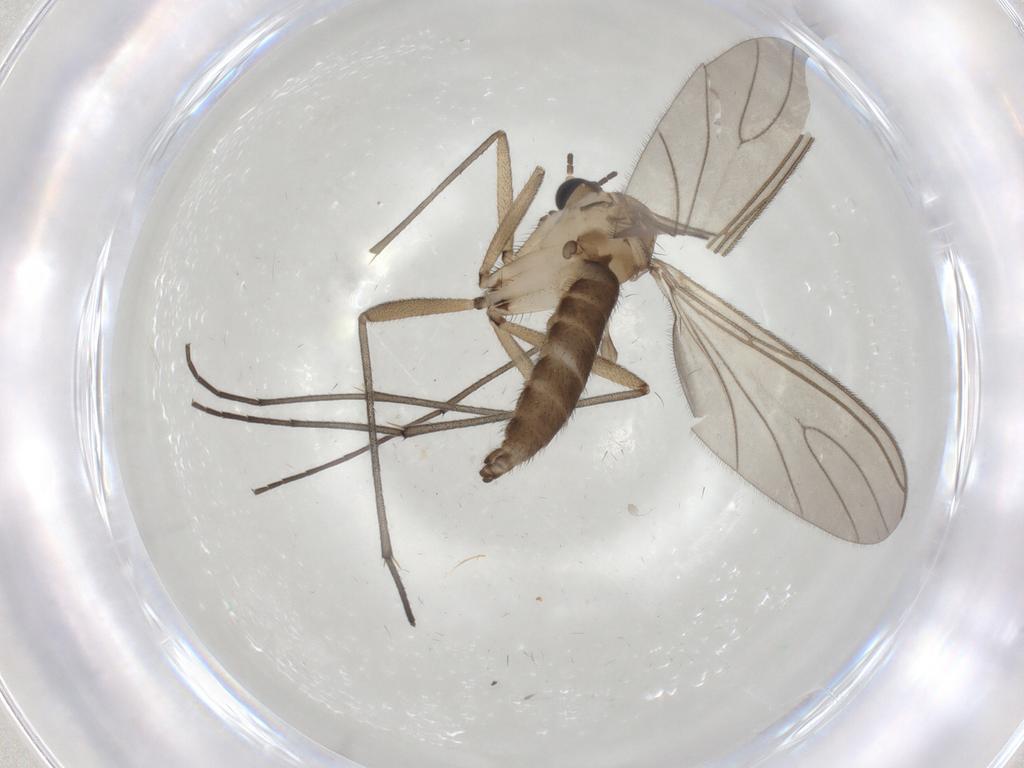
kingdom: Animalia
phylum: Arthropoda
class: Insecta
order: Diptera
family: Sciaridae
